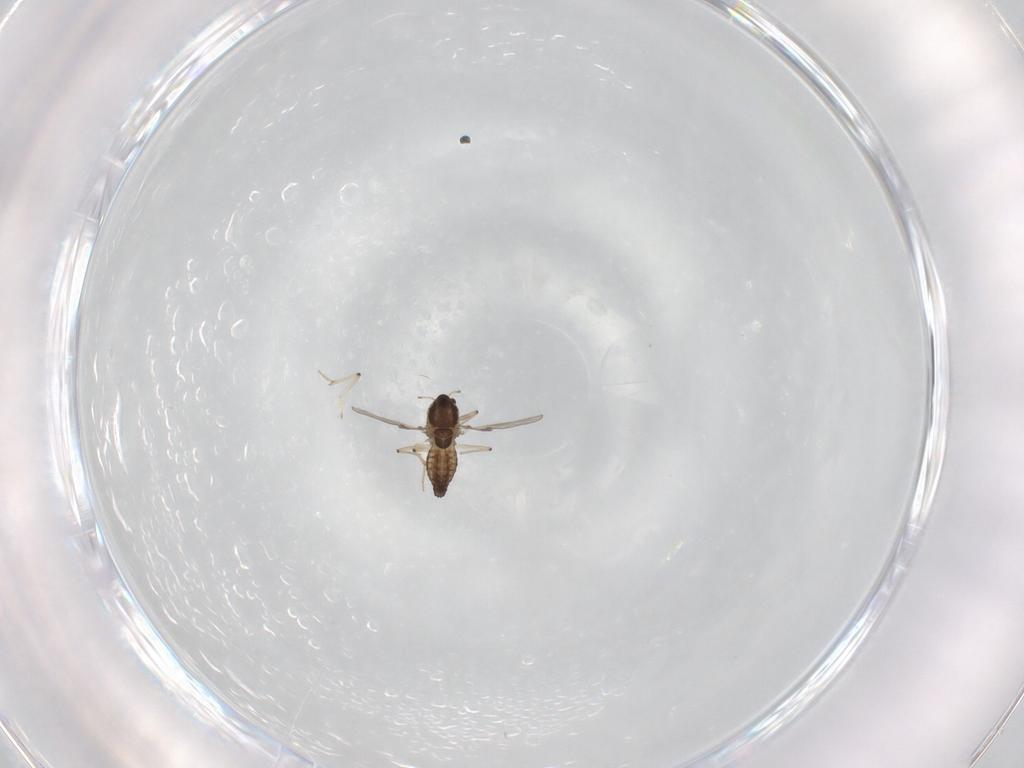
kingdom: Animalia
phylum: Arthropoda
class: Insecta
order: Diptera
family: Chironomidae
